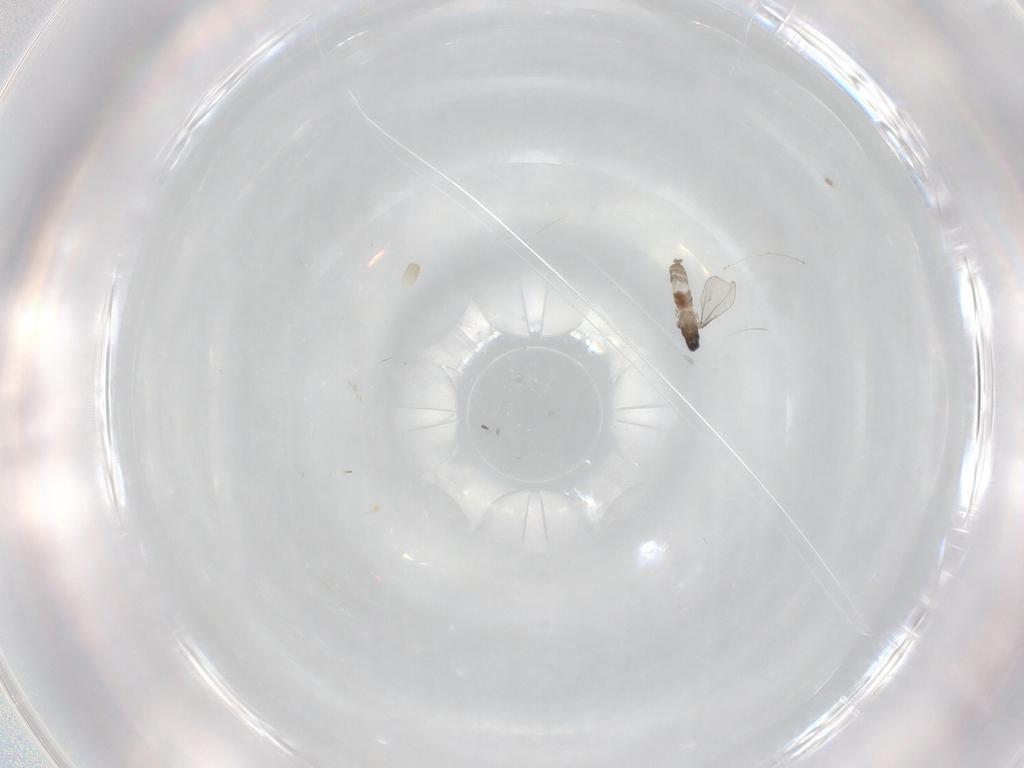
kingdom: Animalia
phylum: Arthropoda
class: Insecta
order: Diptera
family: Cecidomyiidae
